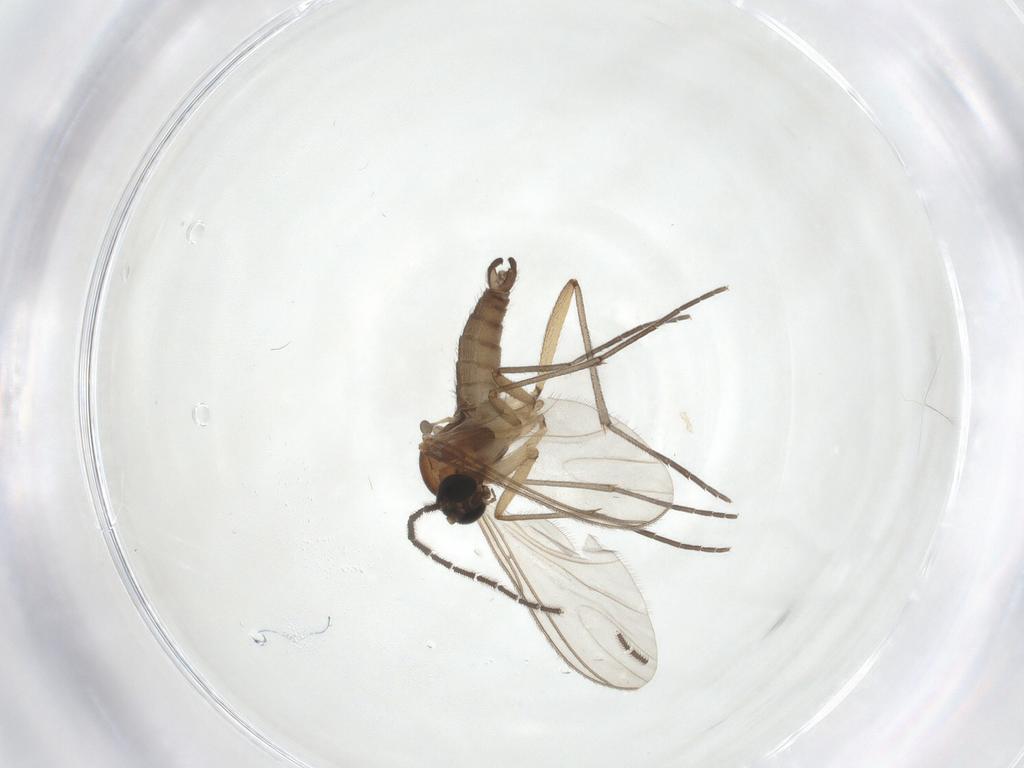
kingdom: Animalia
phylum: Arthropoda
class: Insecta
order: Diptera
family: Sciaridae
